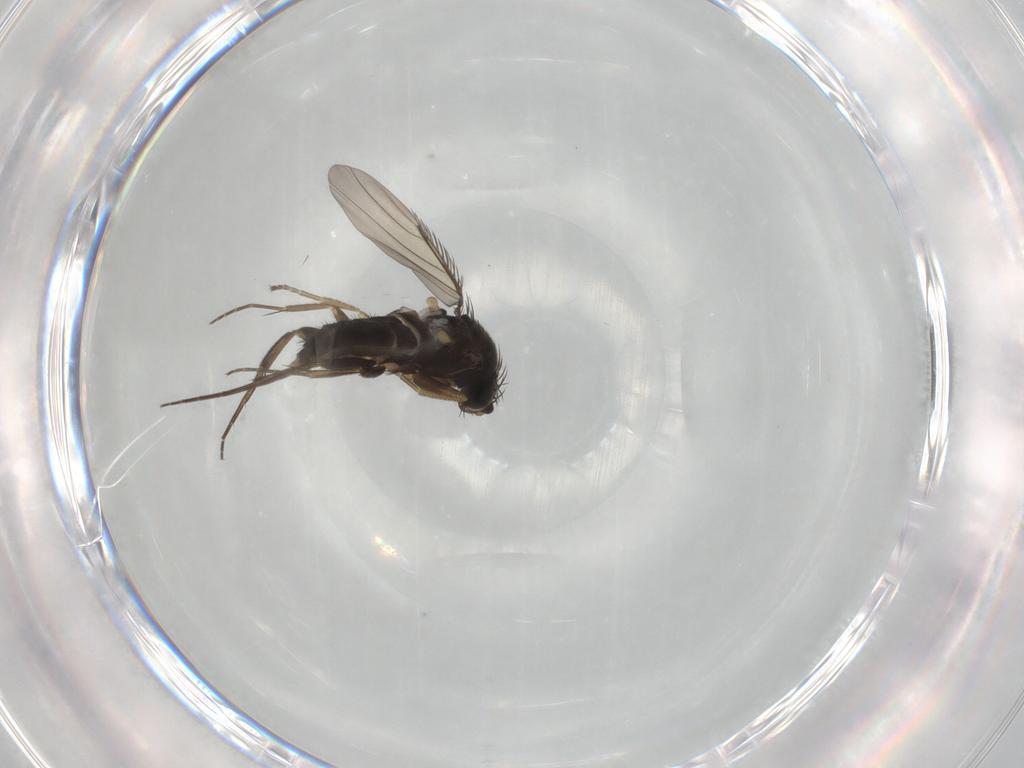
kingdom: Animalia
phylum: Arthropoda
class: Insecta
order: Diptera
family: Phoridae
